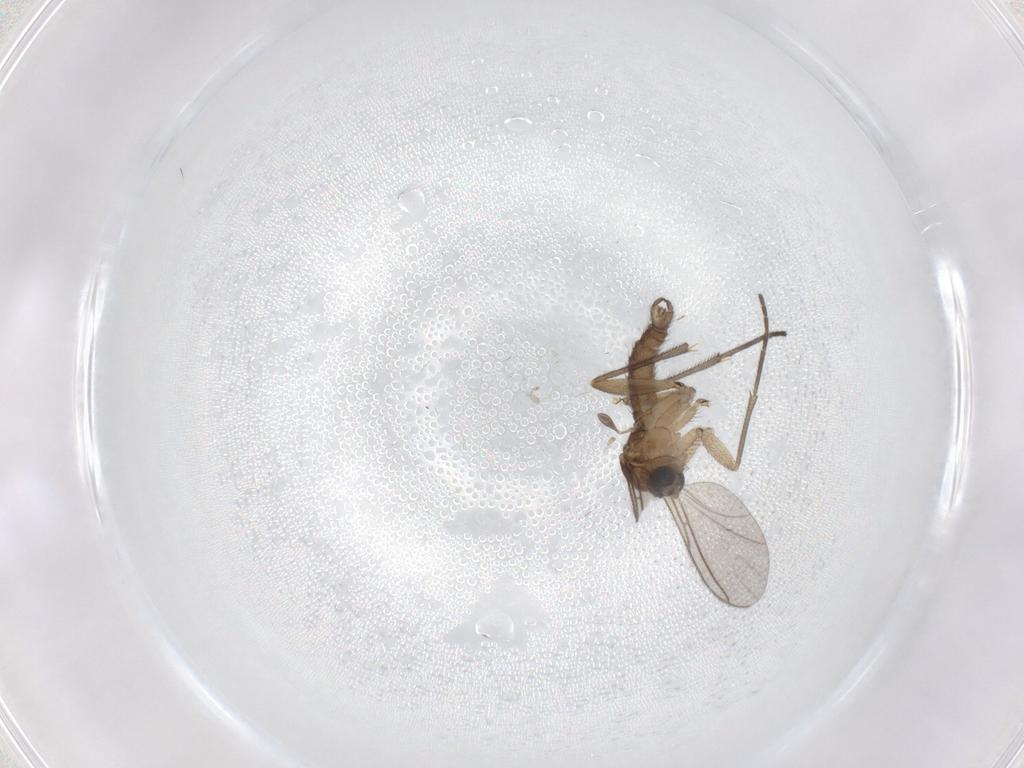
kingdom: Animalia
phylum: Arthropoda
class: Insecta
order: Diptera
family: Sciaridae
